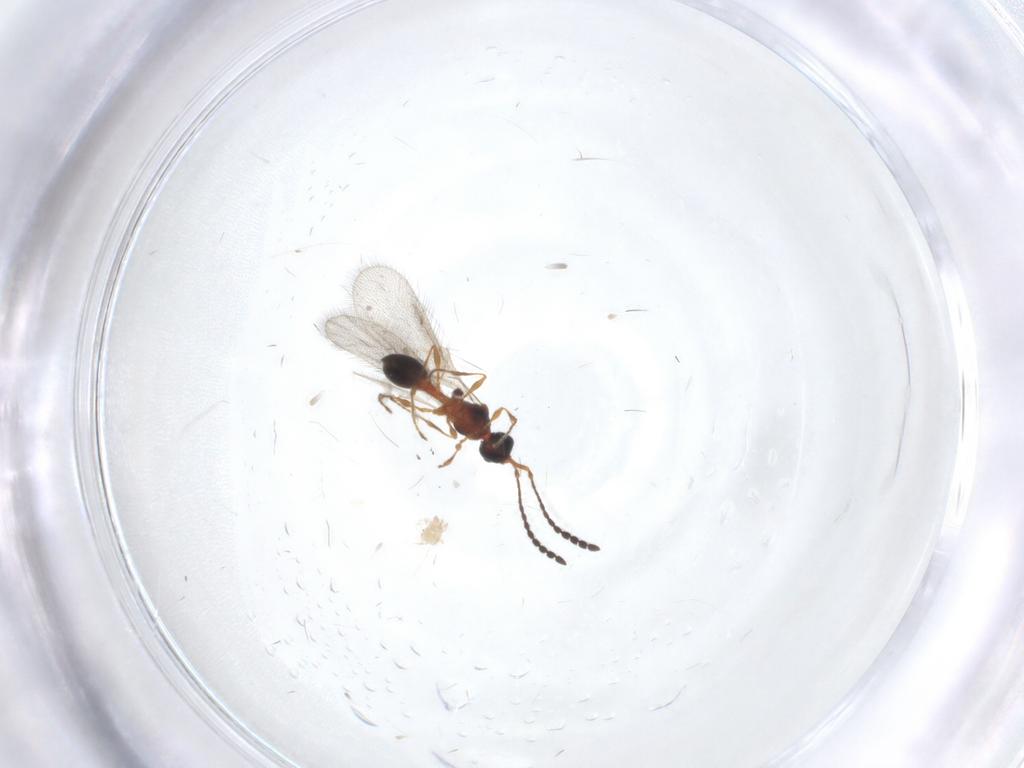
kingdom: Animalia
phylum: Arthropoda
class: Insecta
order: Hymenoptera
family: Diapriidae
